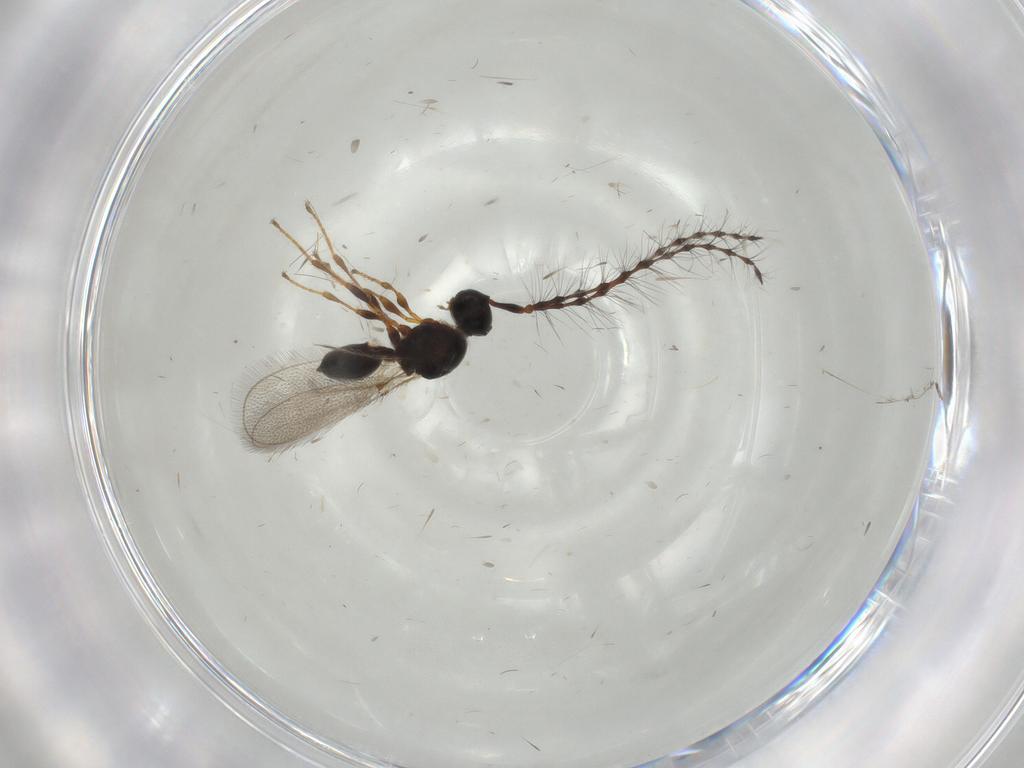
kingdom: Animalia
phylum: Arthropoda
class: Insecta
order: Hymenoptera
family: Diapriidae
